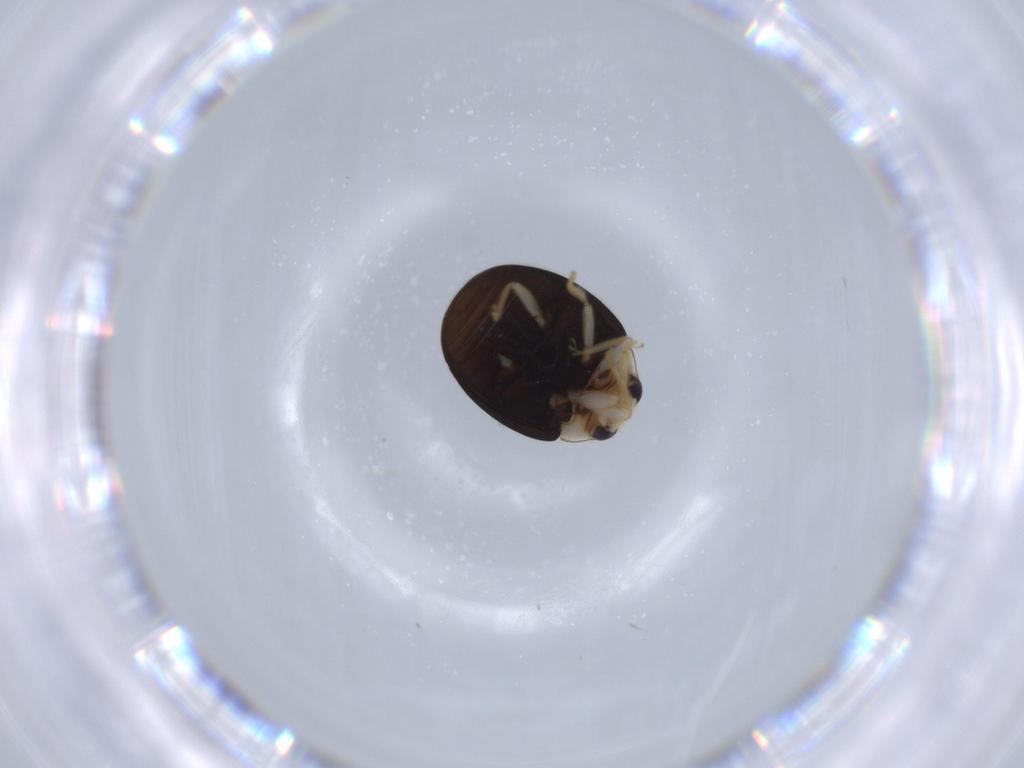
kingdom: Animalia
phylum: Arthropoda
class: Insecta
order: Coleoptera
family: Coccinellidae
